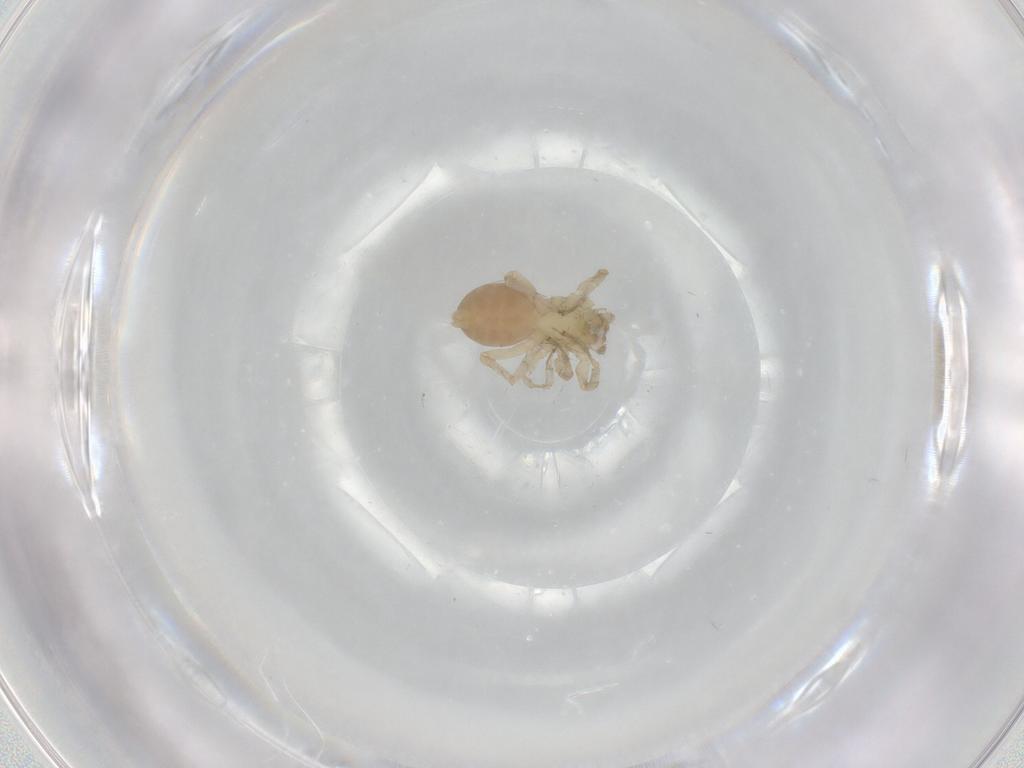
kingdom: Animalia
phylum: Arthropoda
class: Arachnida
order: Araneae
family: Anyphaenidae
